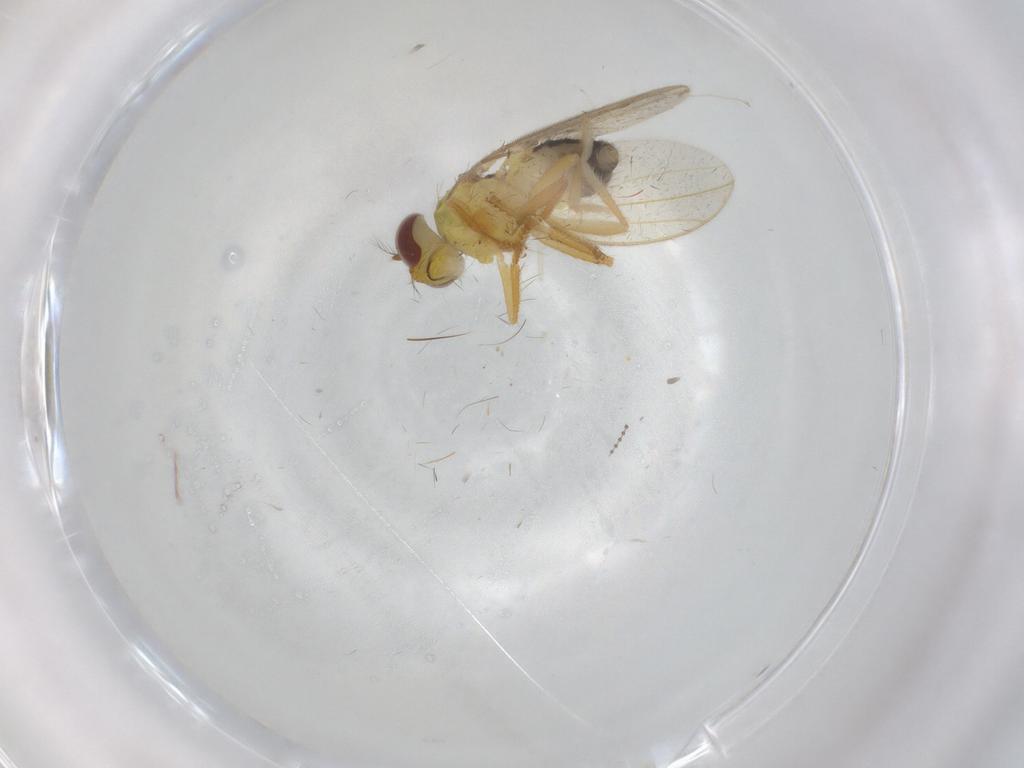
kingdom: Animalia
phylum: Arthropoda
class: Insecta
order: Diptera
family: Periscelididae
